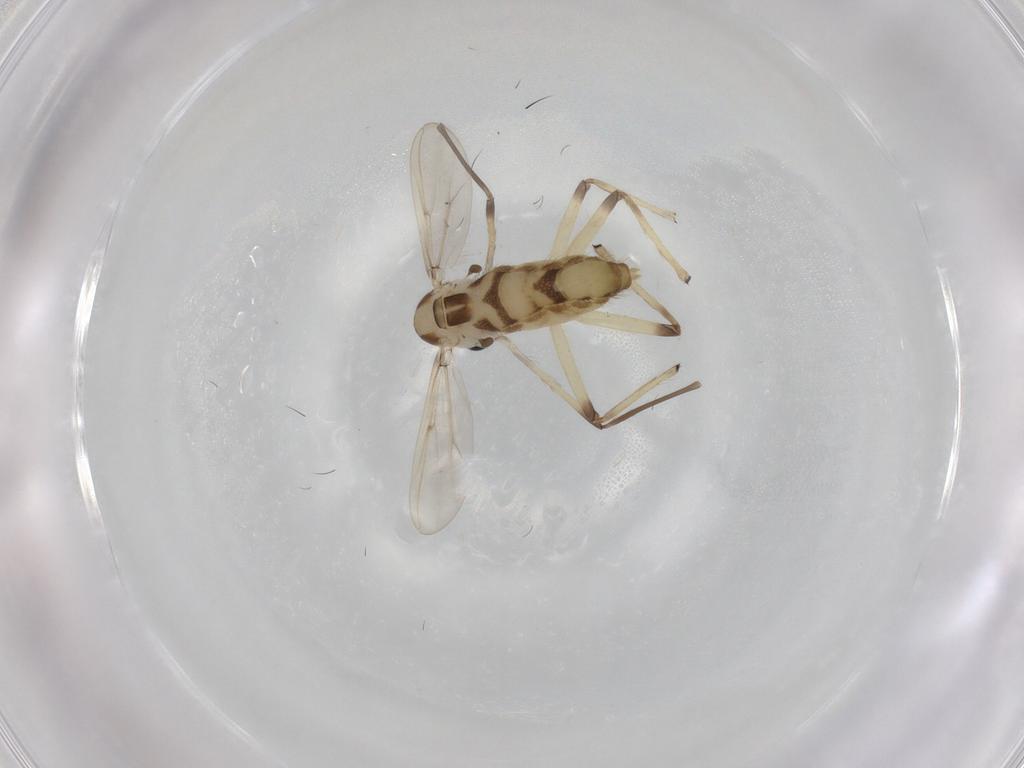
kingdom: Animalia
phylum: Arthropoda
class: Insecta
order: Diptera
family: Chironomidae
